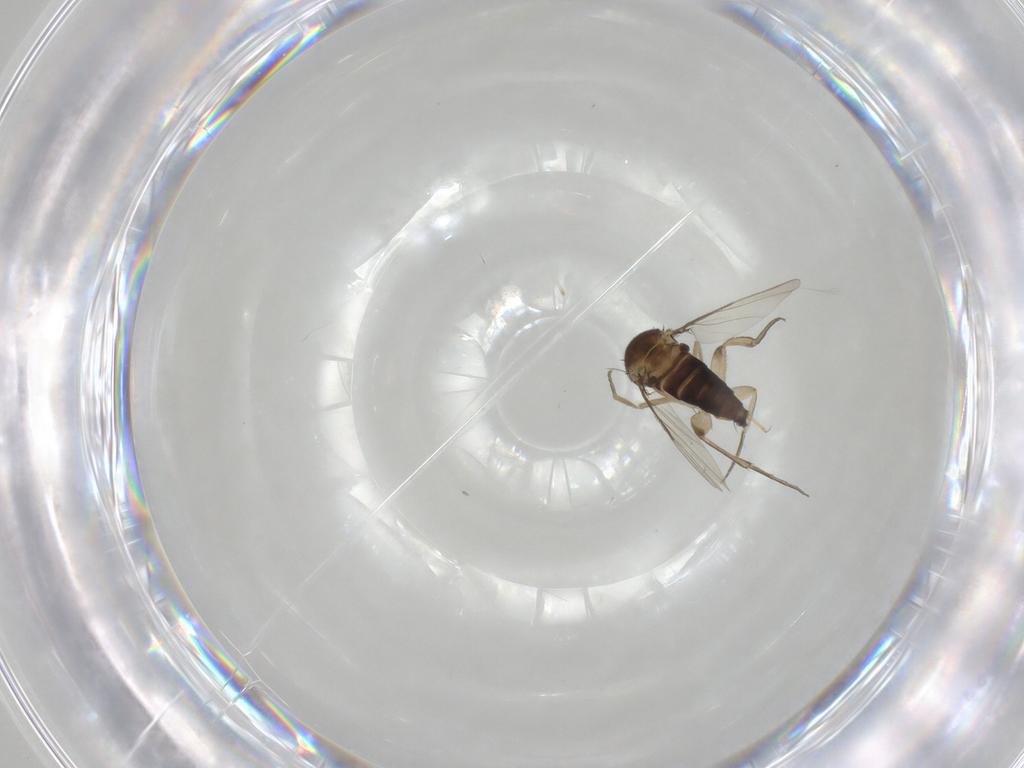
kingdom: Animalia
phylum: Arthropoda
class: Insecta
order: Diptera
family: Phoridae
